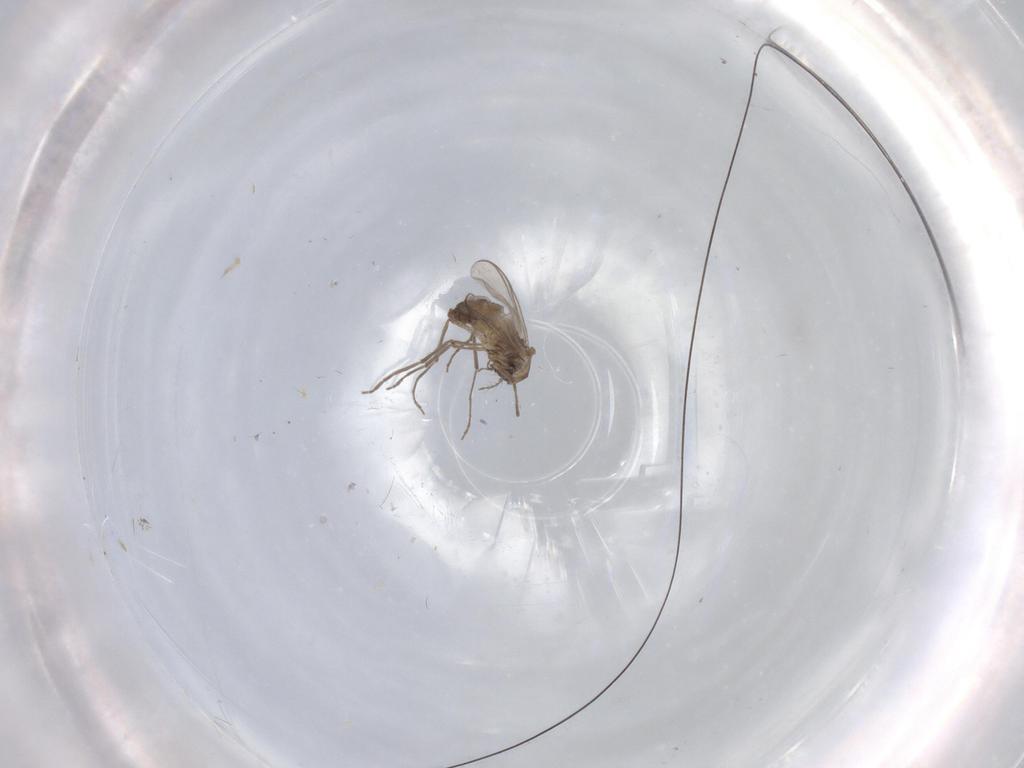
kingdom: Animalia
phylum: Arthropoda
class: Insecta
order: Diptera
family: Chironomidae
